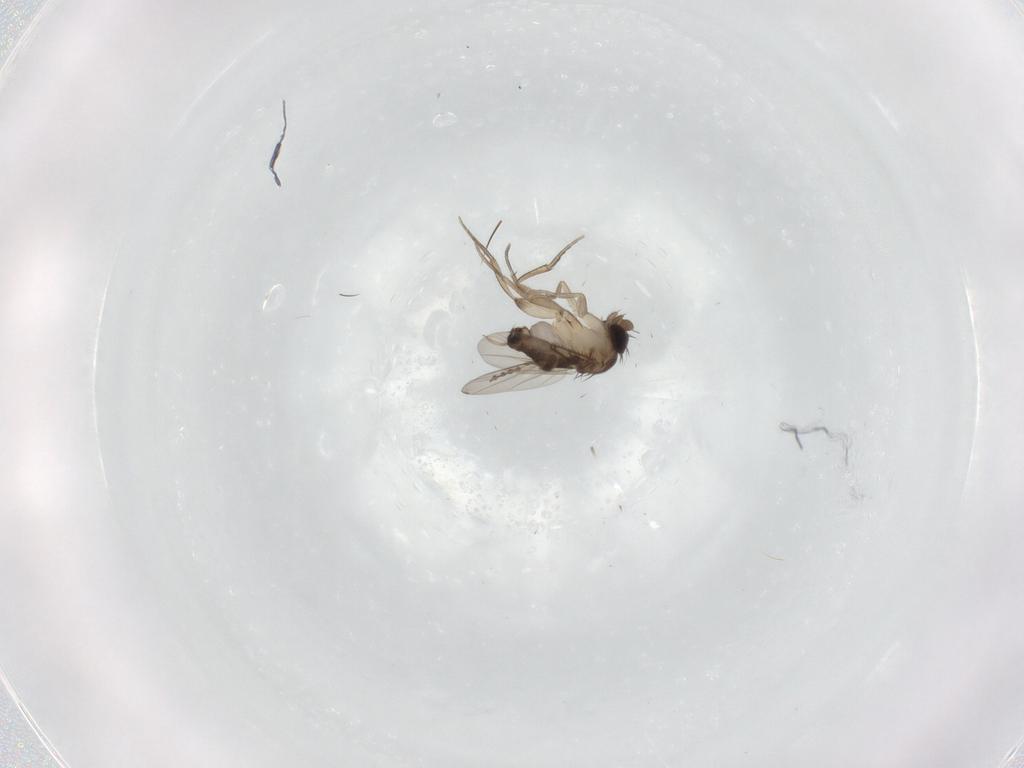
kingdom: Animalia
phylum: Arthropoda
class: Insecta
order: Diptera
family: Phoridae
